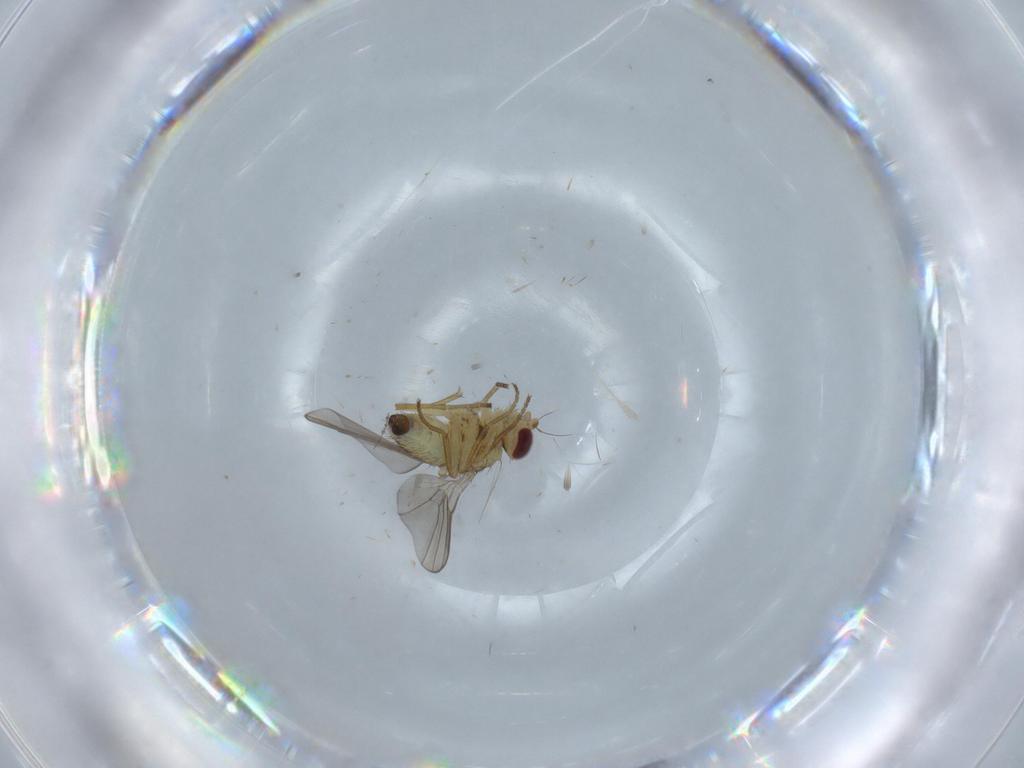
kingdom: Animalia
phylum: Arthropoda
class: Insecta
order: Diptera
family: Agromyzidae
